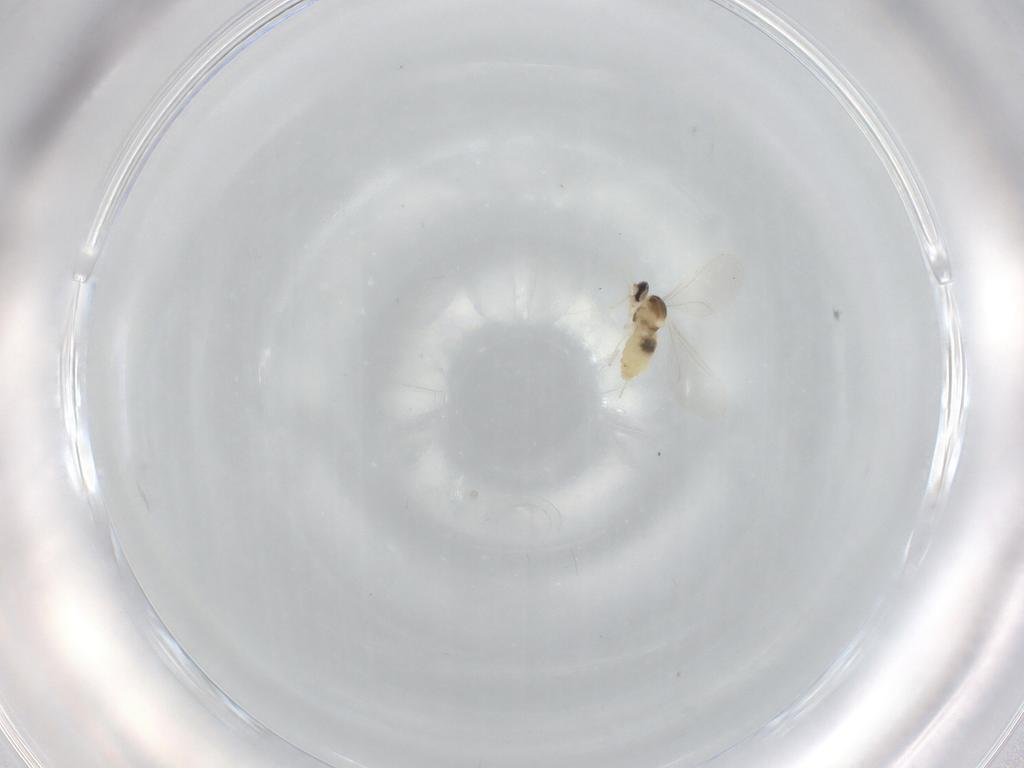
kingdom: Animalia
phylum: Arthropoda
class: Insecta
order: Diptera
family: Cecidomyiidae
